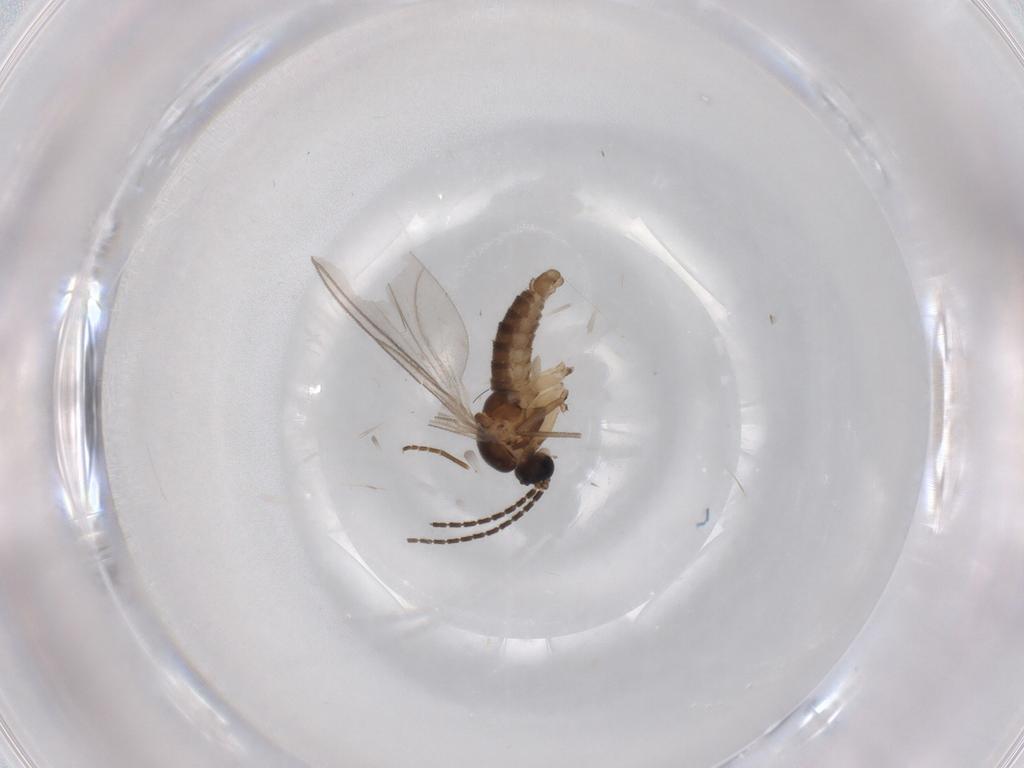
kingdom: Animalia
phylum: Arthropoda
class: Insecta
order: Diptera
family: Sciaridae
